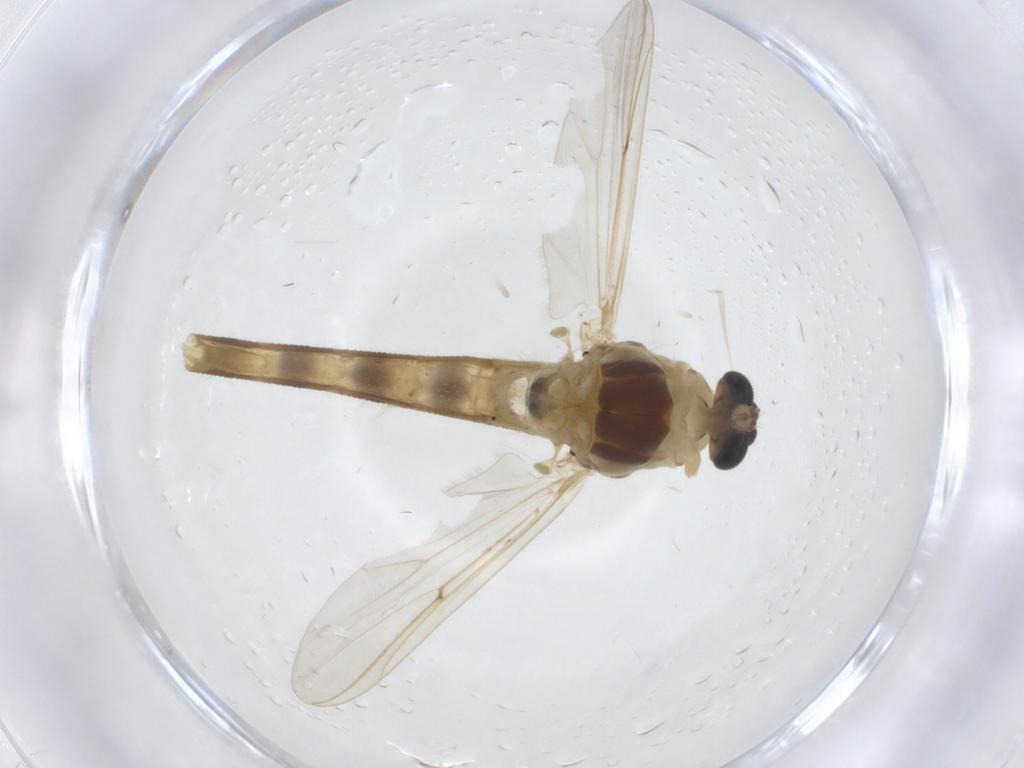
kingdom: Animalia
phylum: Arthropoda
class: Insecta
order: Diptera
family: Chironomidae
